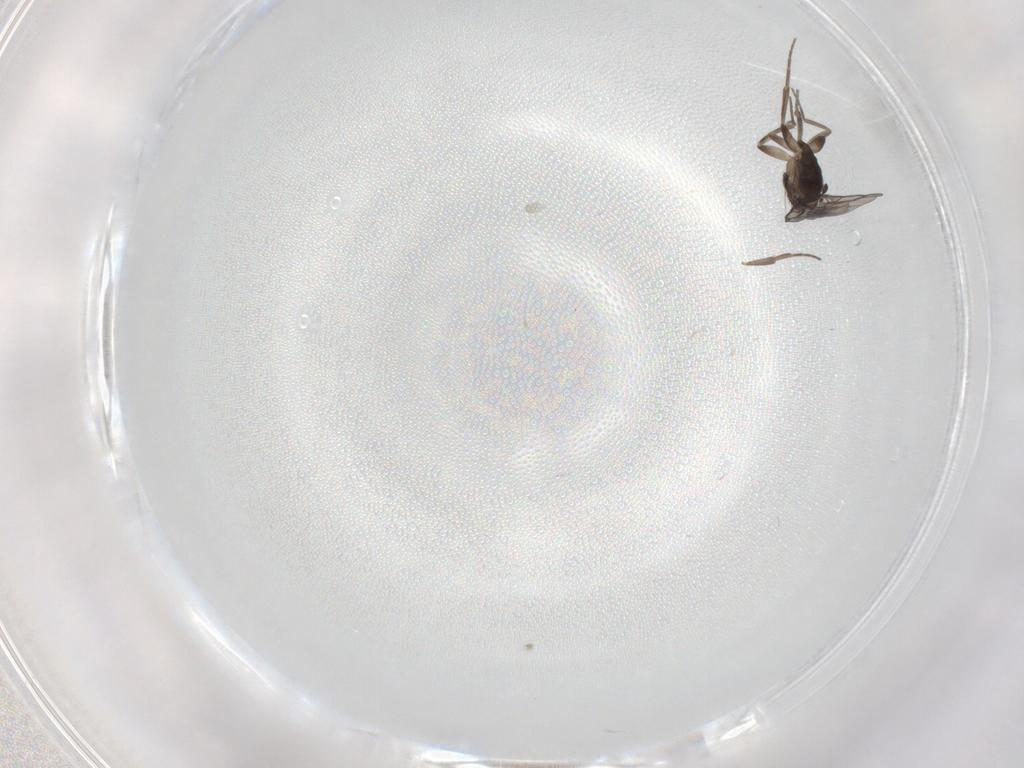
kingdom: Animalia
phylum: Arthropoda
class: Insecta
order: Diptera
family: Phoridae
